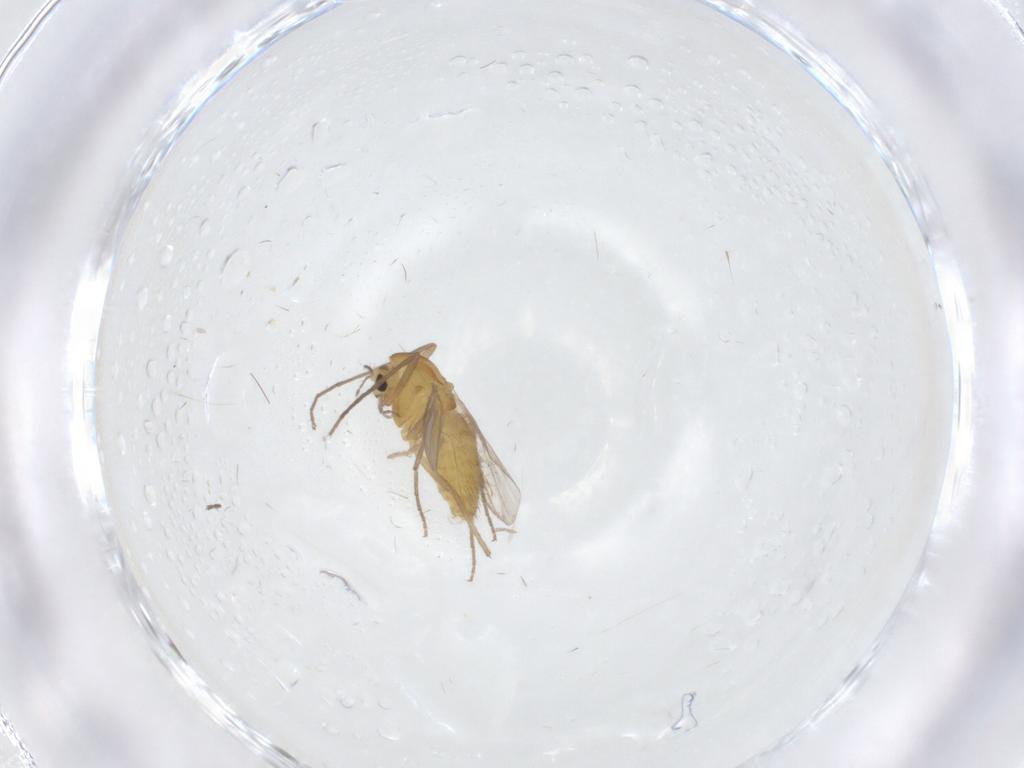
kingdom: Animalia
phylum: Arthropoda
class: Insecta
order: Diptera
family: Chironomidae
